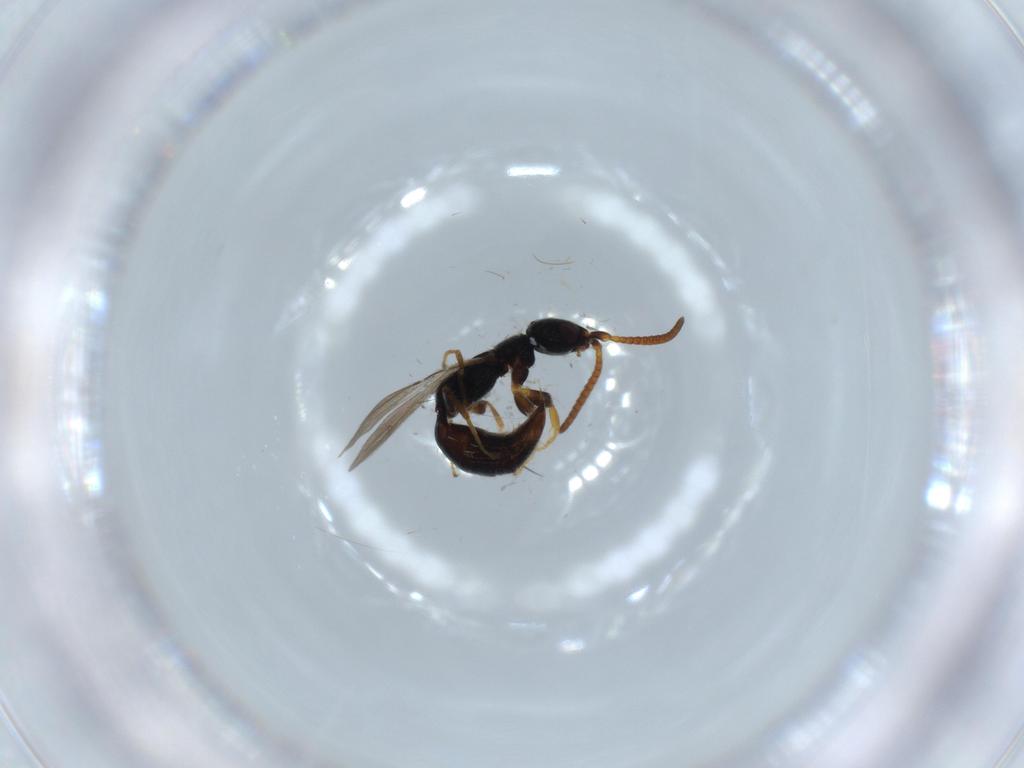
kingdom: Animalia
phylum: Arthropoda
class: Insecta
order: Hymenoptera
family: Bethylidae
